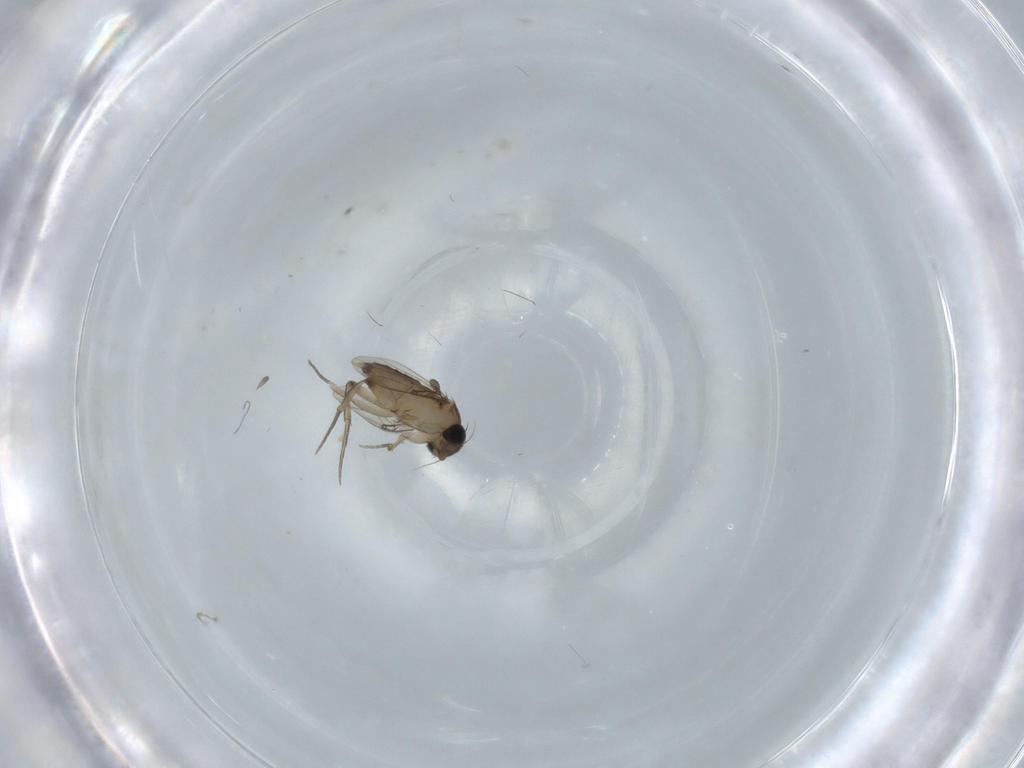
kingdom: Animalia
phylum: Arthropoda
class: Insecta
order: Diptera
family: Phoridae
